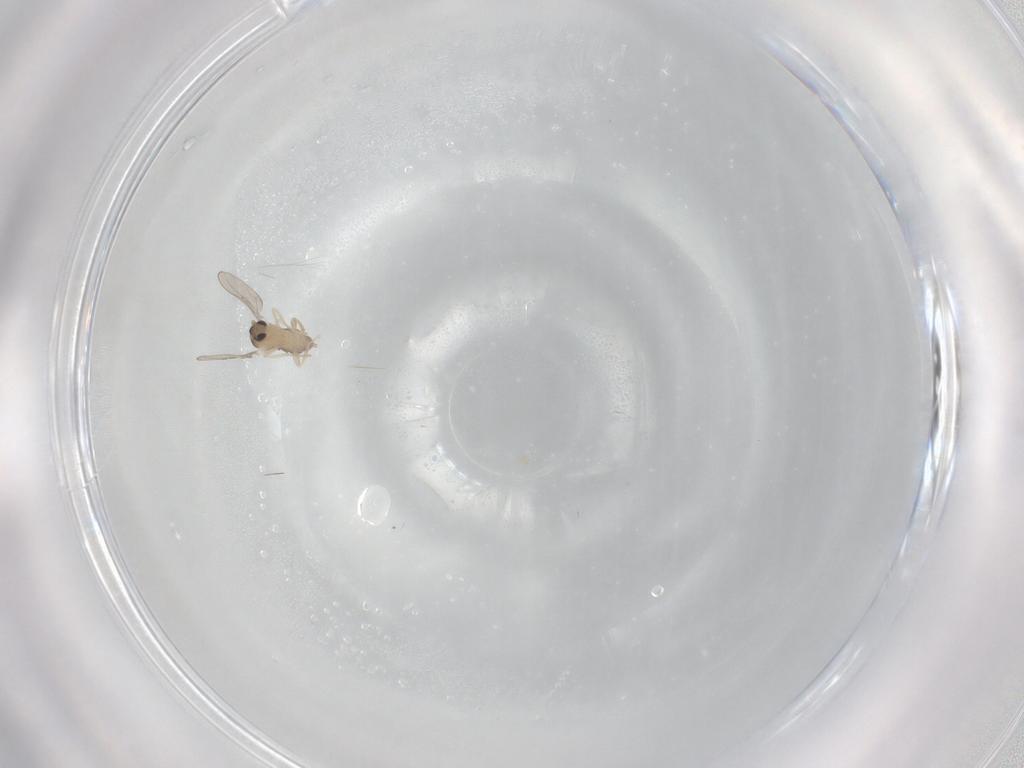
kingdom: Animalia
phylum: Arthropoda
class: Insecta
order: Diptera
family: Cecidomyiidae
